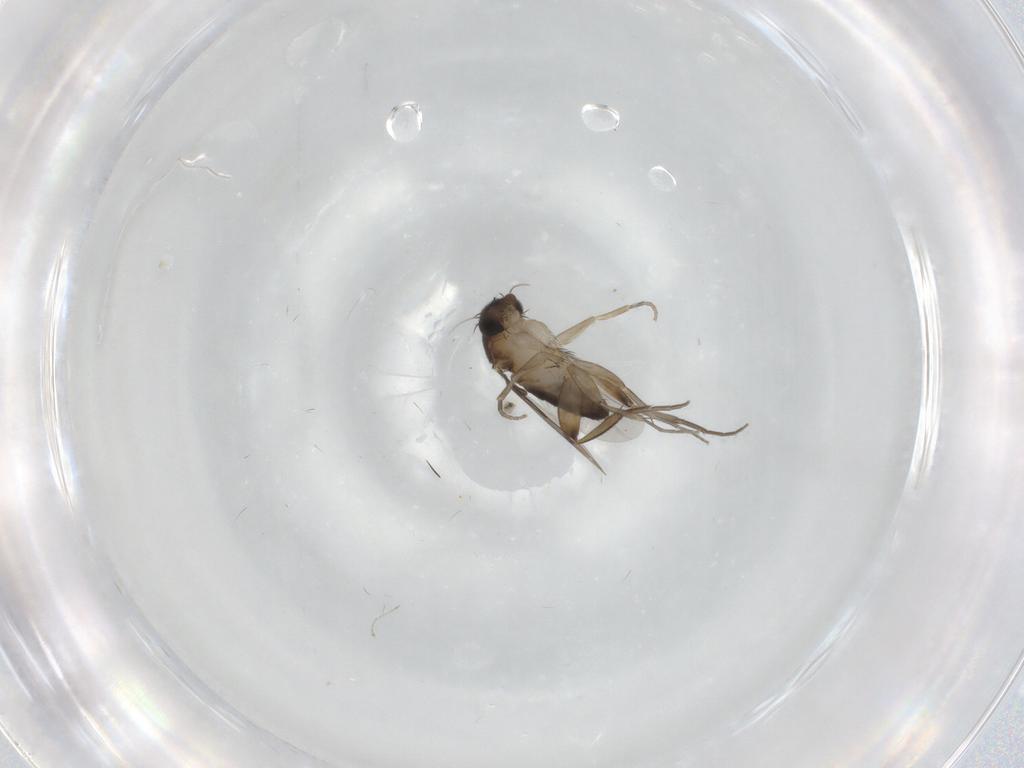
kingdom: Animalia
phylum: Arthropoda
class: Insecta
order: Diptera
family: Phoridae
